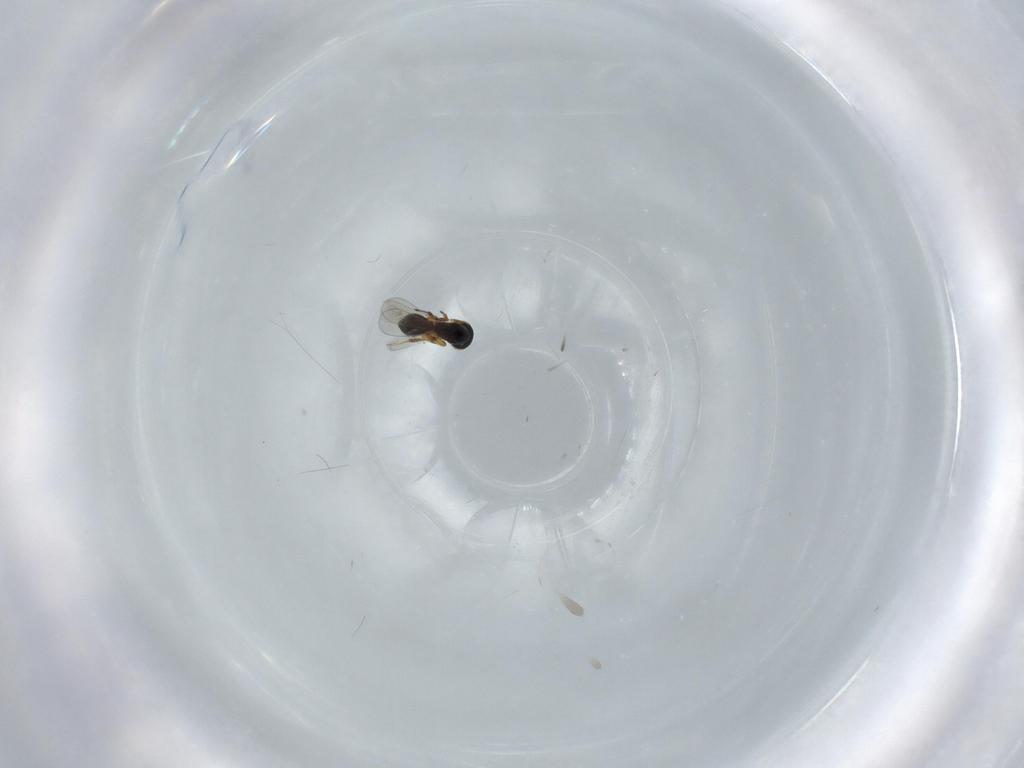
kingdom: Animalia
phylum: Arthropoda
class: Insecta
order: Hymenoptera
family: Platygastridae
